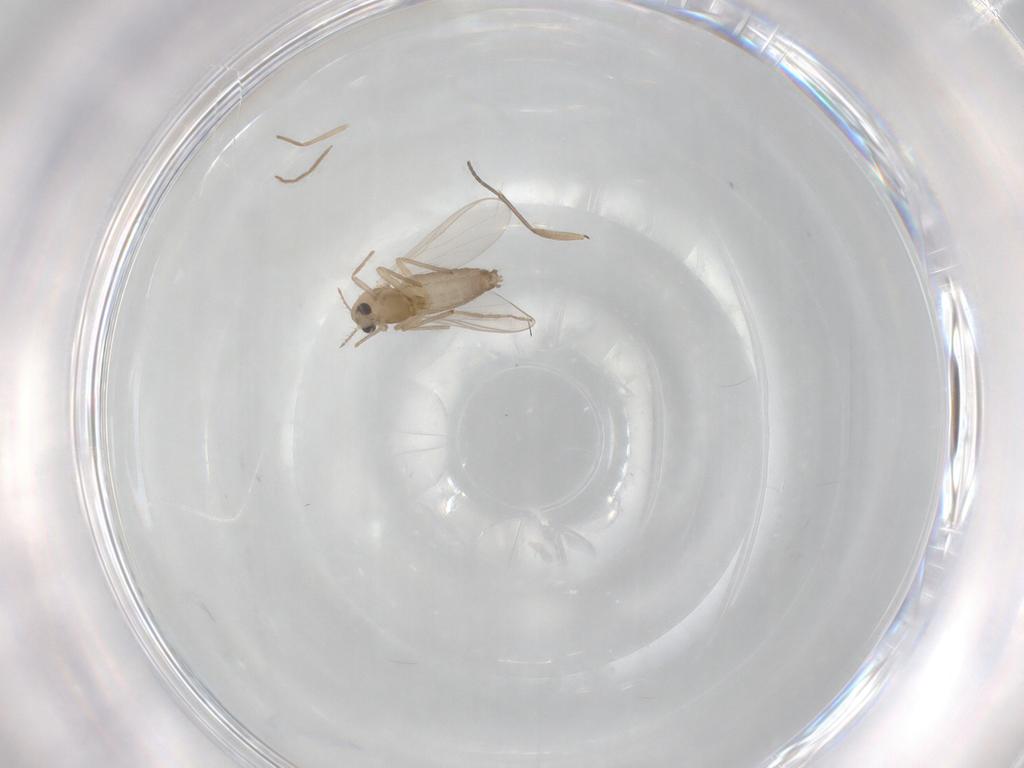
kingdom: Animalia
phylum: Arthropoda
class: Insecta
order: Diptera
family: Chironomidae
